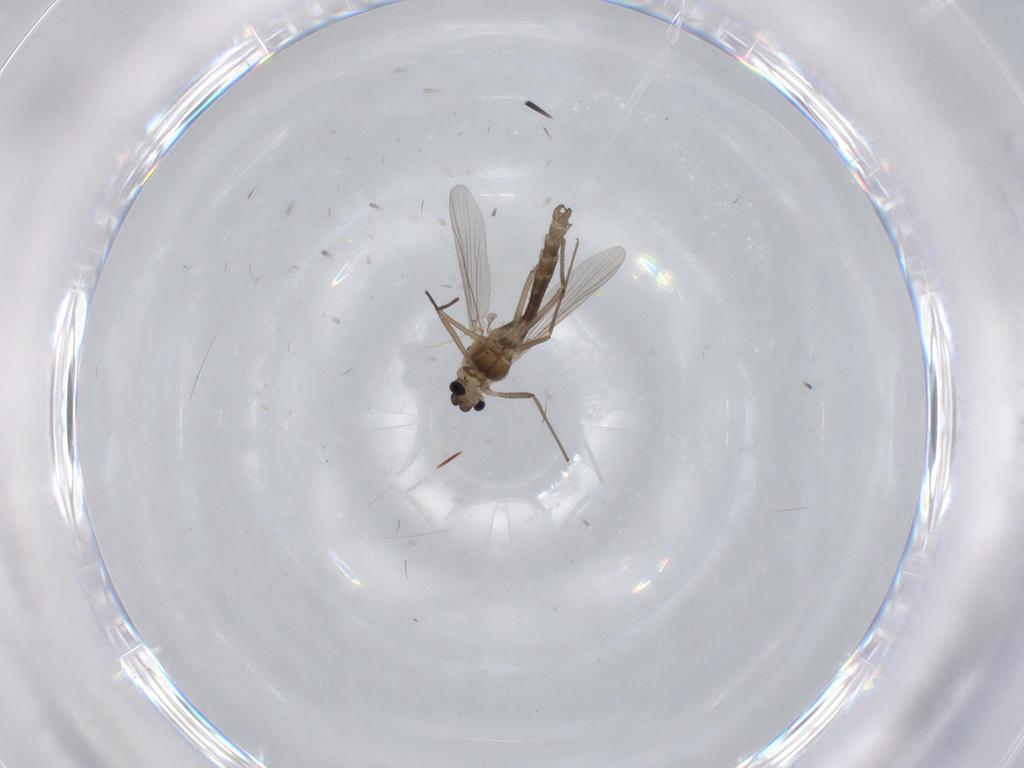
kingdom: Animalia
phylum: Arthropoda
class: Insecta
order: Diptera
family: Chironomidae
